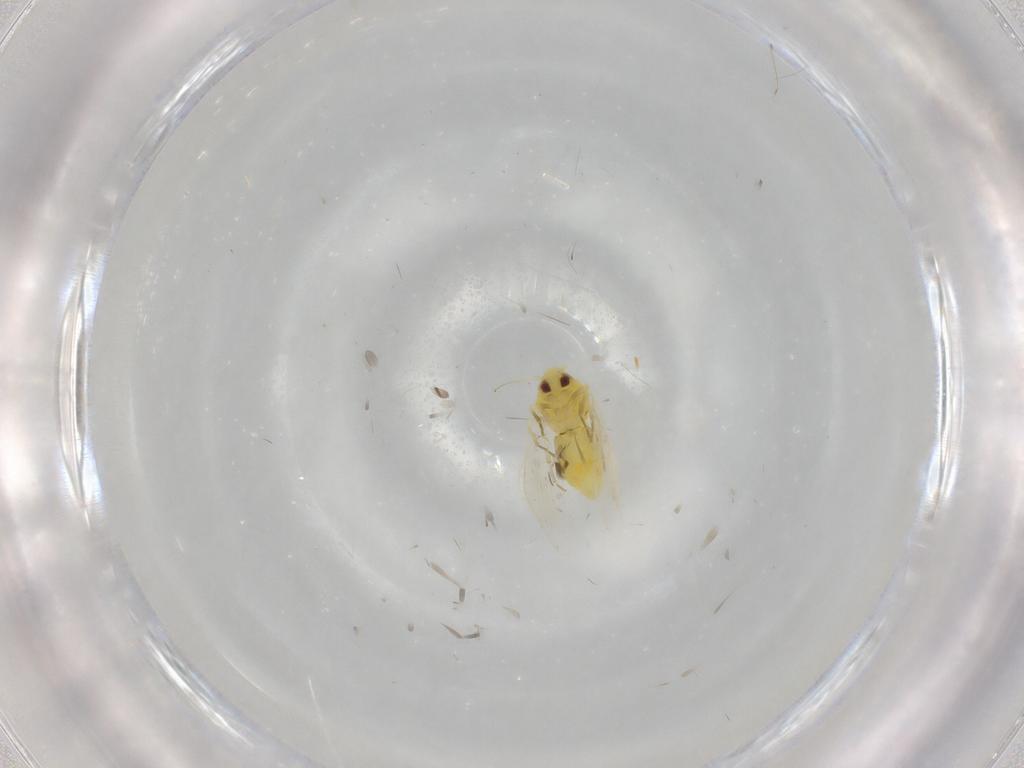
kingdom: Animalia
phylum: Arthropoda
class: Insecta
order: Hemiptera
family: Aleyrodidae
